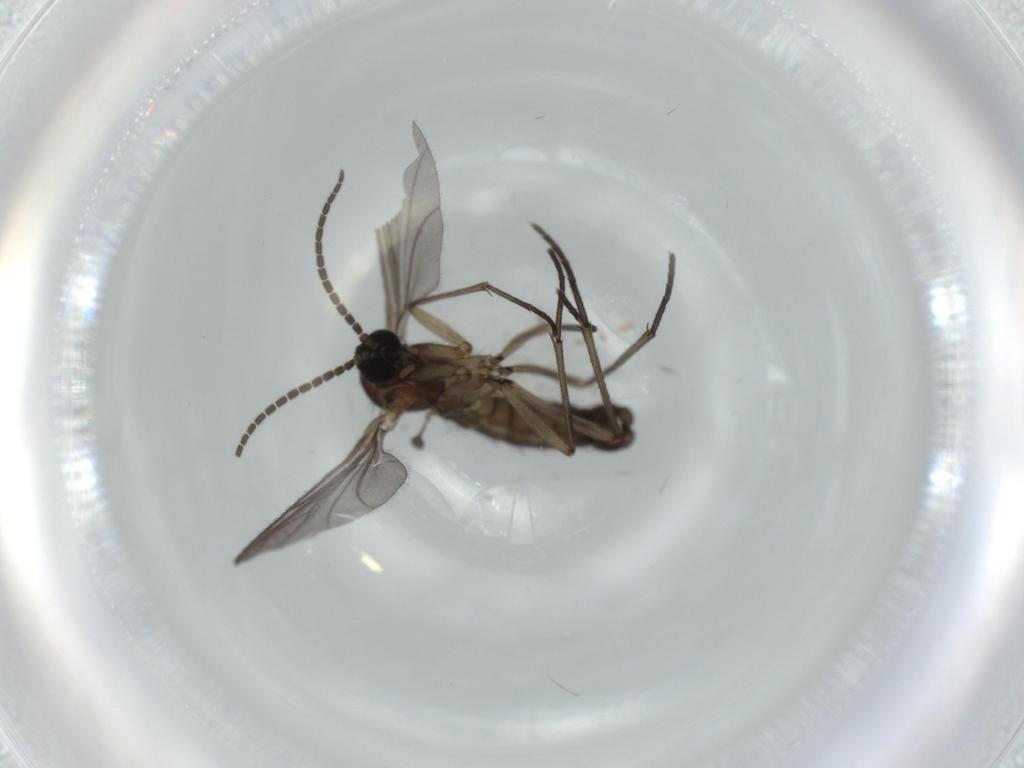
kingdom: Animalia
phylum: Arthropoda
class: Insecta
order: Diptera
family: Sciaridae
